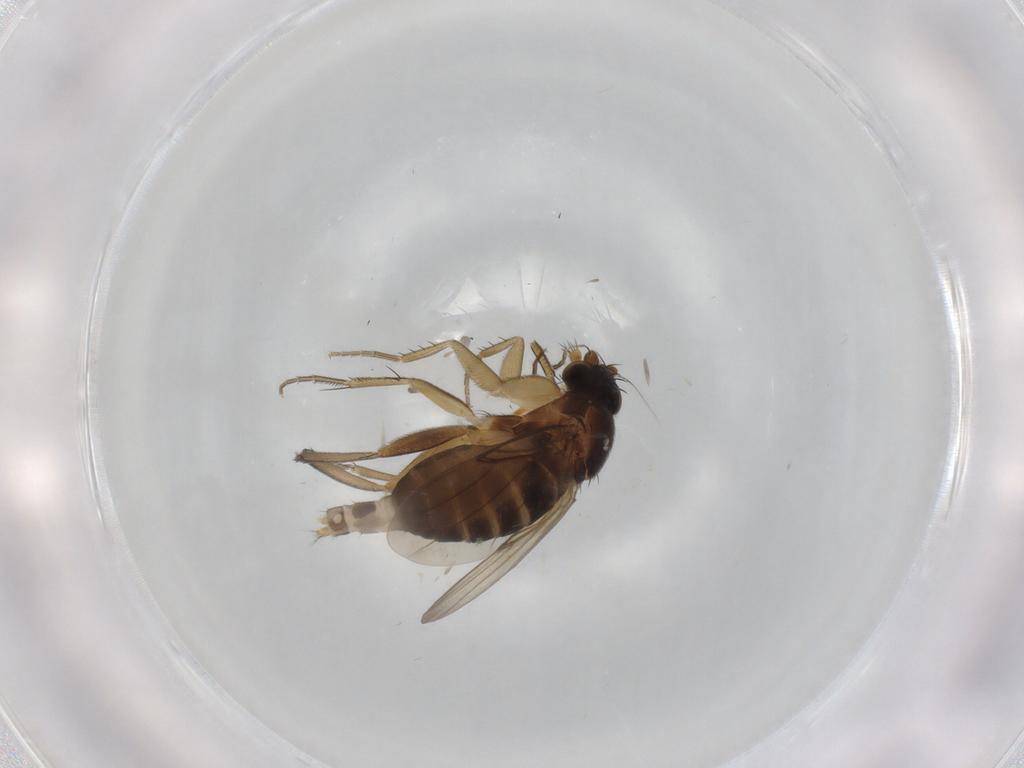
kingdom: Animalia
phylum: Arthropoda
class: Insecta
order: Diptera
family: Phoridae
